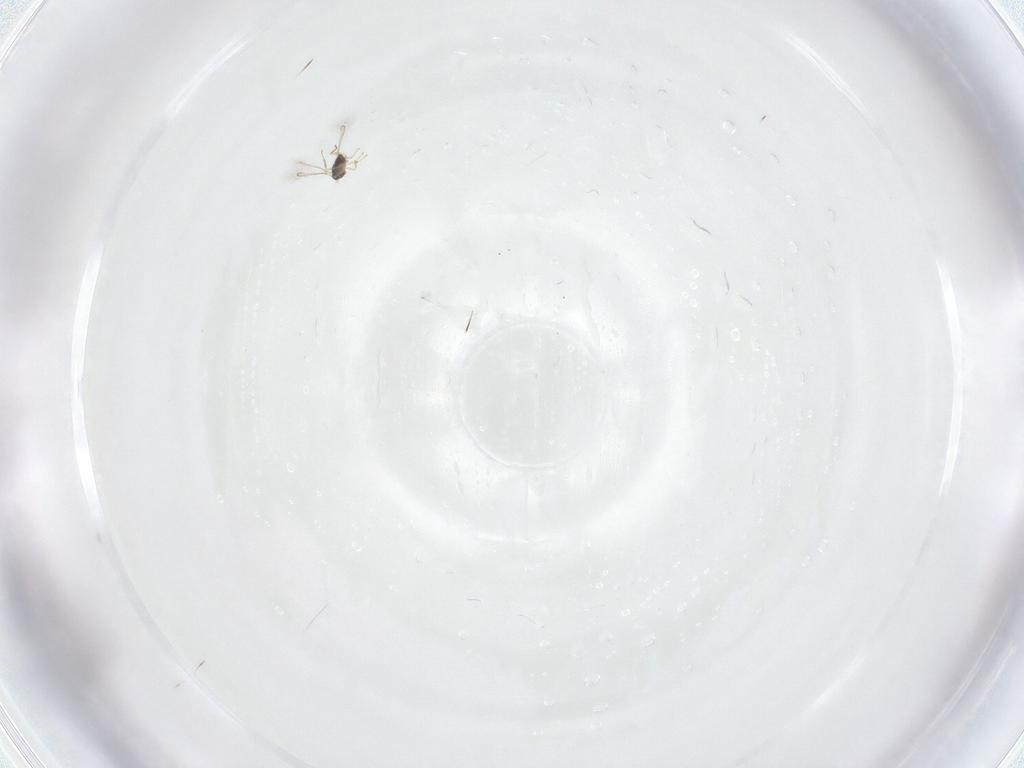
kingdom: Animalia
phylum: Arthropoda
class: Insecta
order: Hymenoptera
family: Mymaridae
